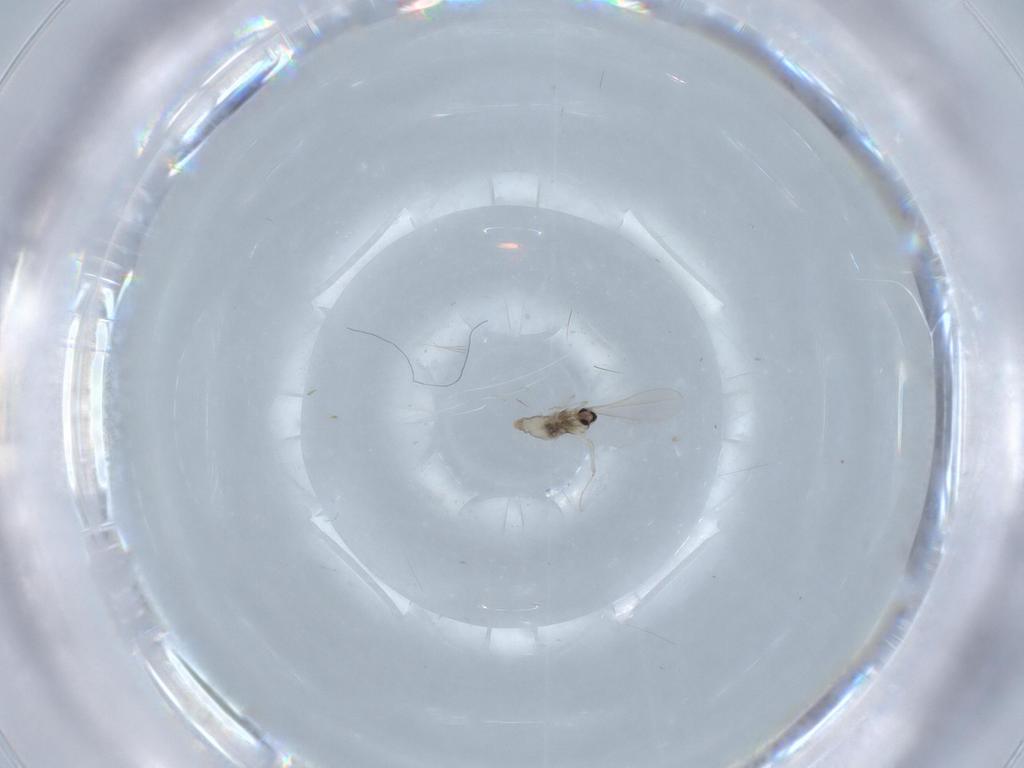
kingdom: Animalia
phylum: Arthropoda
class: Insecta
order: Diptera
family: Cecidomyiidae
